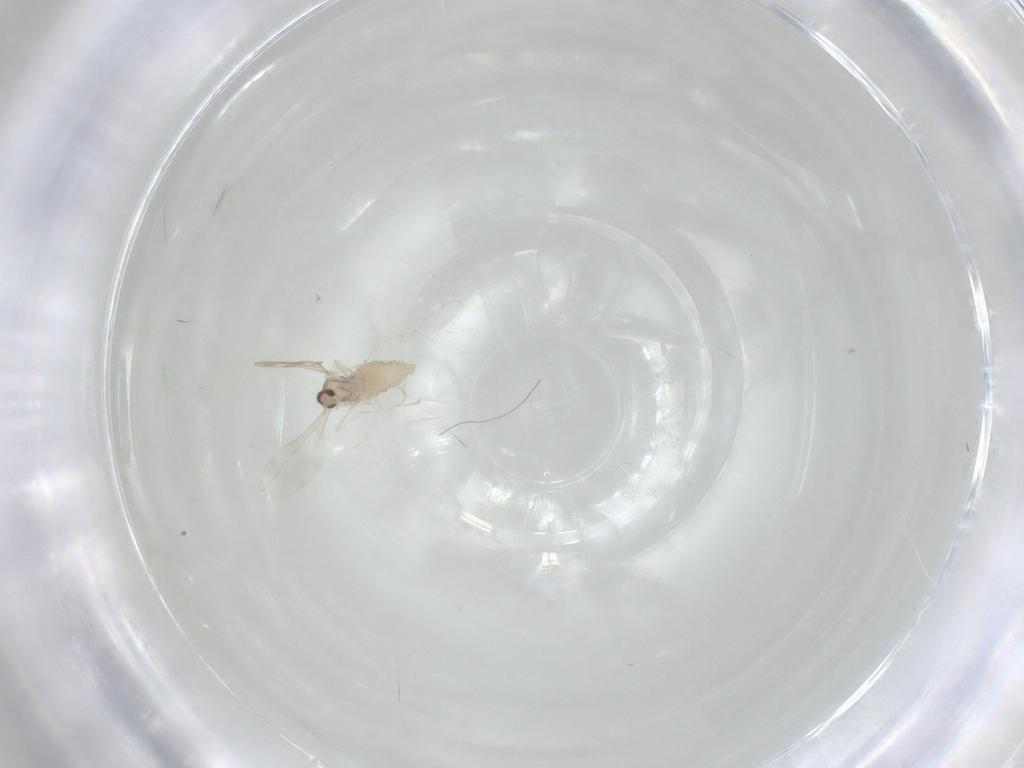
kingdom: Animalia
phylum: Arthropoda
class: Insecta
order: Diptera
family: Cecidomyiidae
